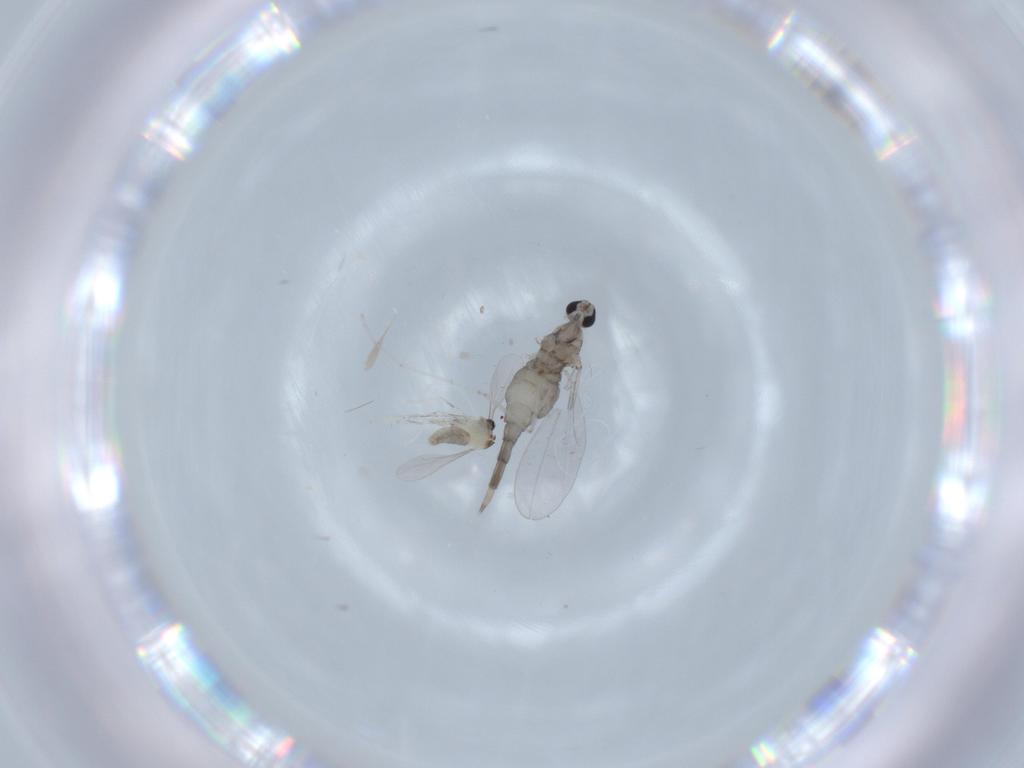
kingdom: Animalia
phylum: Arthropoda
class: Insecta
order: Diptera
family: Cecidomyiidae
